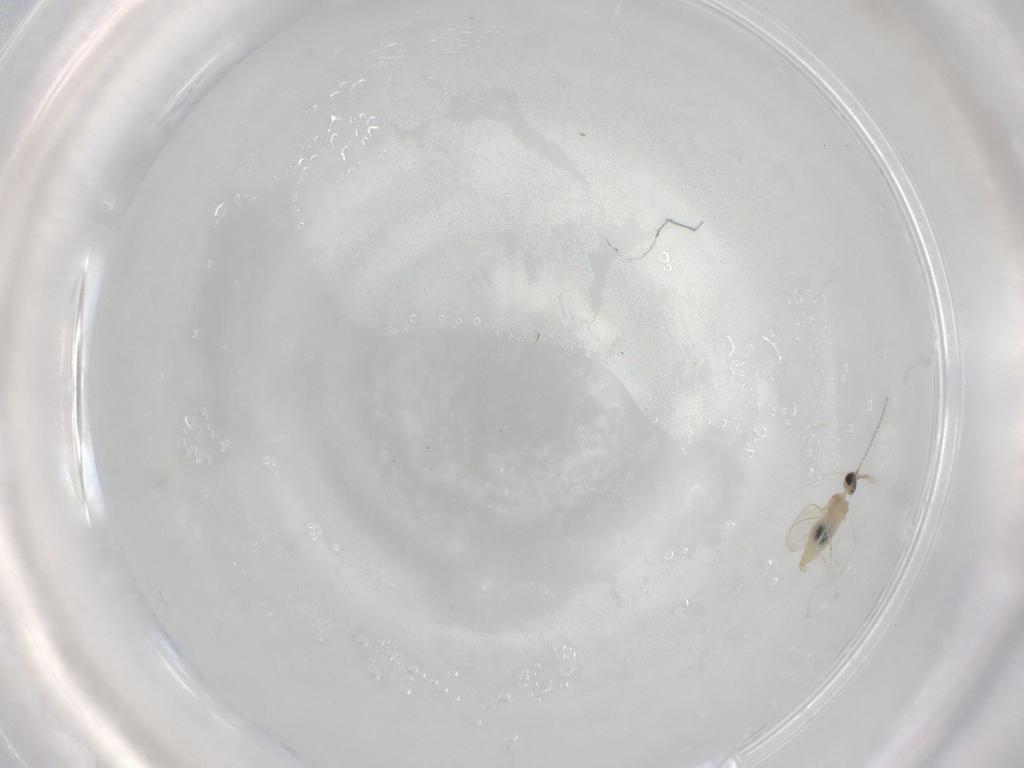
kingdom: Animalia
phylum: Arthropoda
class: Insecta
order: Diptera
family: Cecidomyiidae
